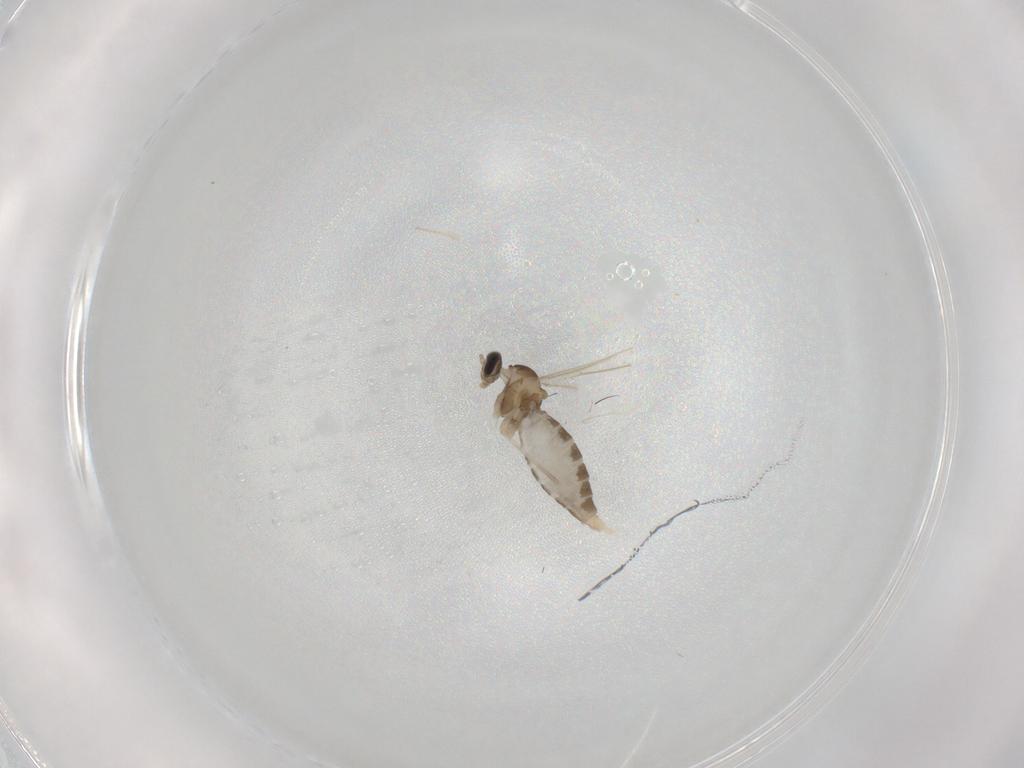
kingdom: Animalia
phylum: Arthropoda
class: Insecta
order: Diptera
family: Cecidomyiidae
